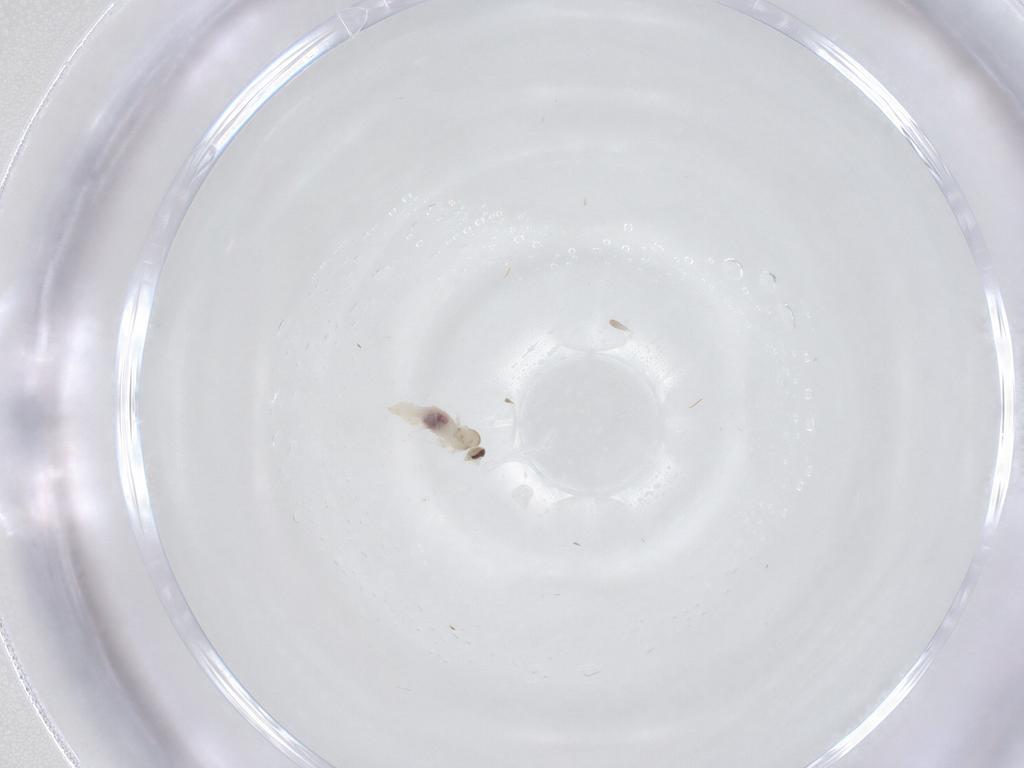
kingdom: Animalia
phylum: Arthropoda
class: Insecta
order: Diptera
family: Cecidomyiidae
